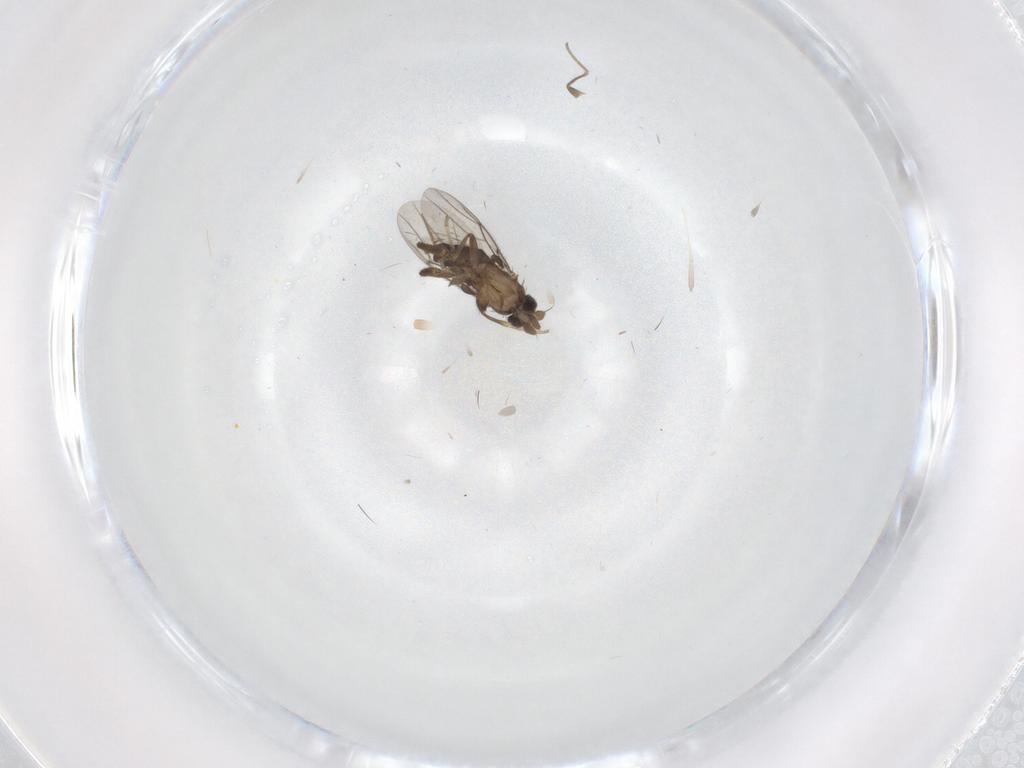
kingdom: Animalia
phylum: Arthropoda
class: Insecta
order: Diptera
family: Phoridae
